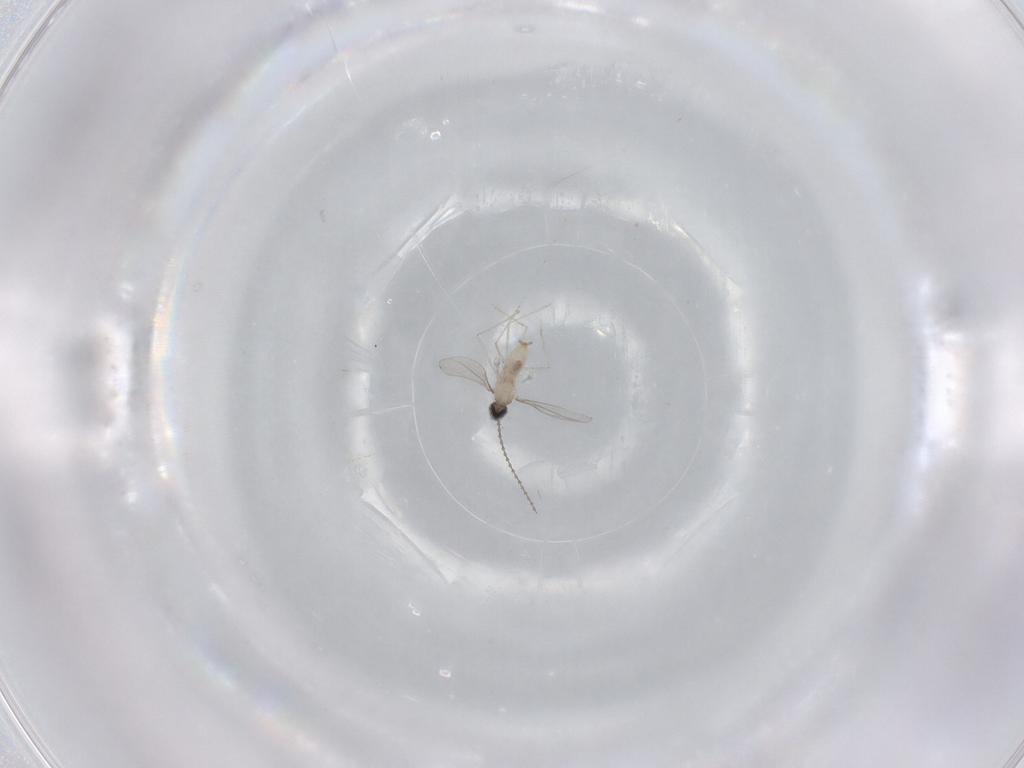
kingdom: Animalia
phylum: Arthropoda
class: Insecta
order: Diptera
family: Cecidomyiidae
